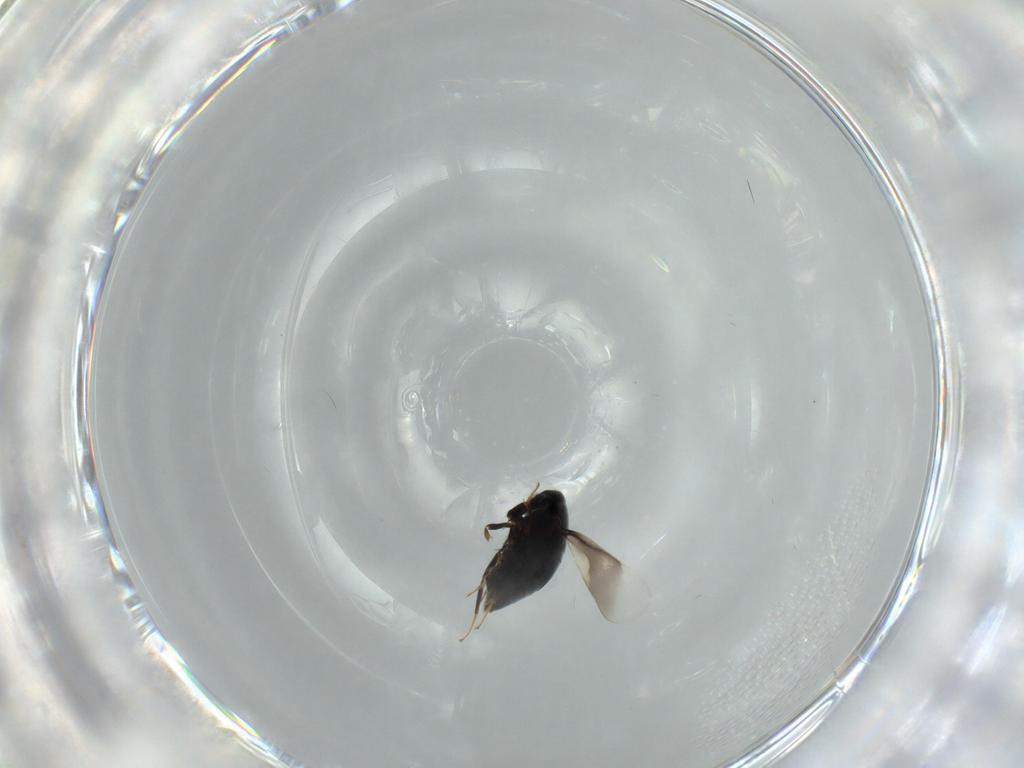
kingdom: Animalia
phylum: Arthropoda
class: Insecta
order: Hymenoptera
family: Signiphoridae
